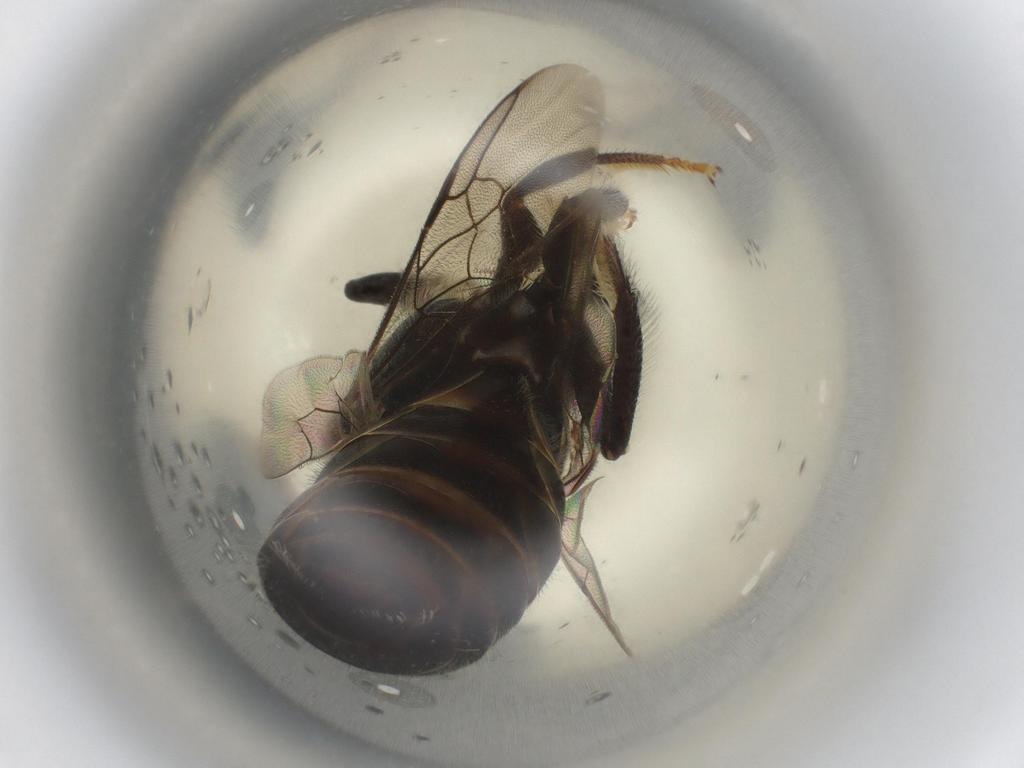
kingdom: Animalia
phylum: Arthropoda
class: Insecta
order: Hymenoptera
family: Apidae
